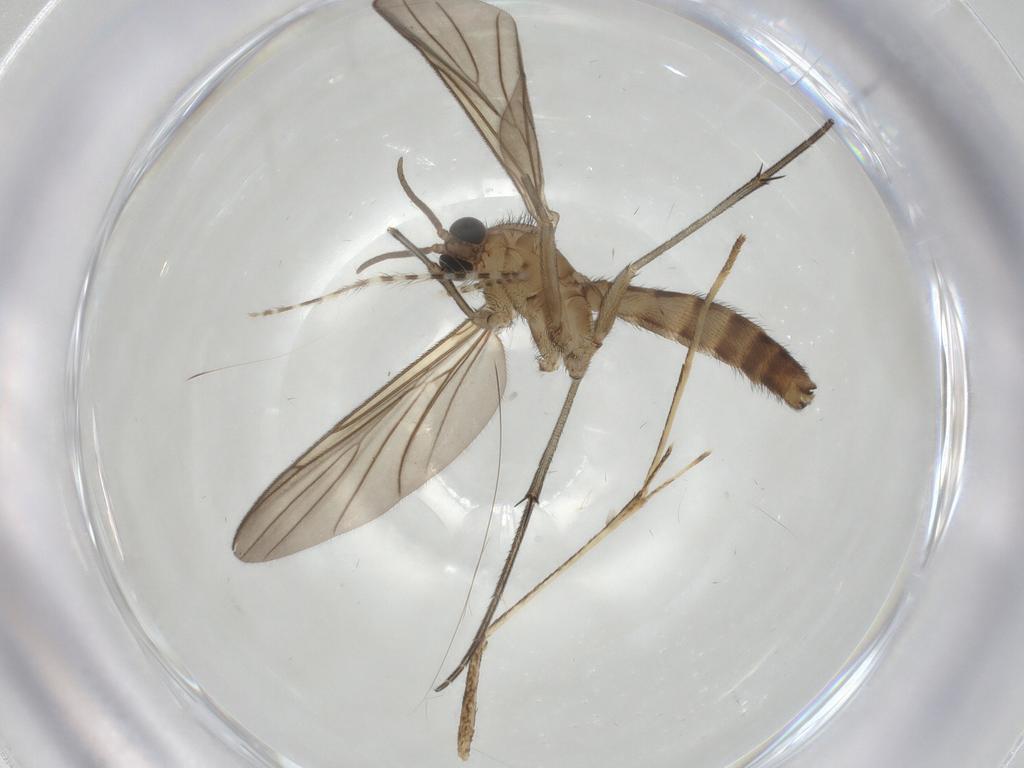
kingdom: Animalia
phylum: Arthropoda
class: Insecta
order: Diptera
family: Keroplatidae
